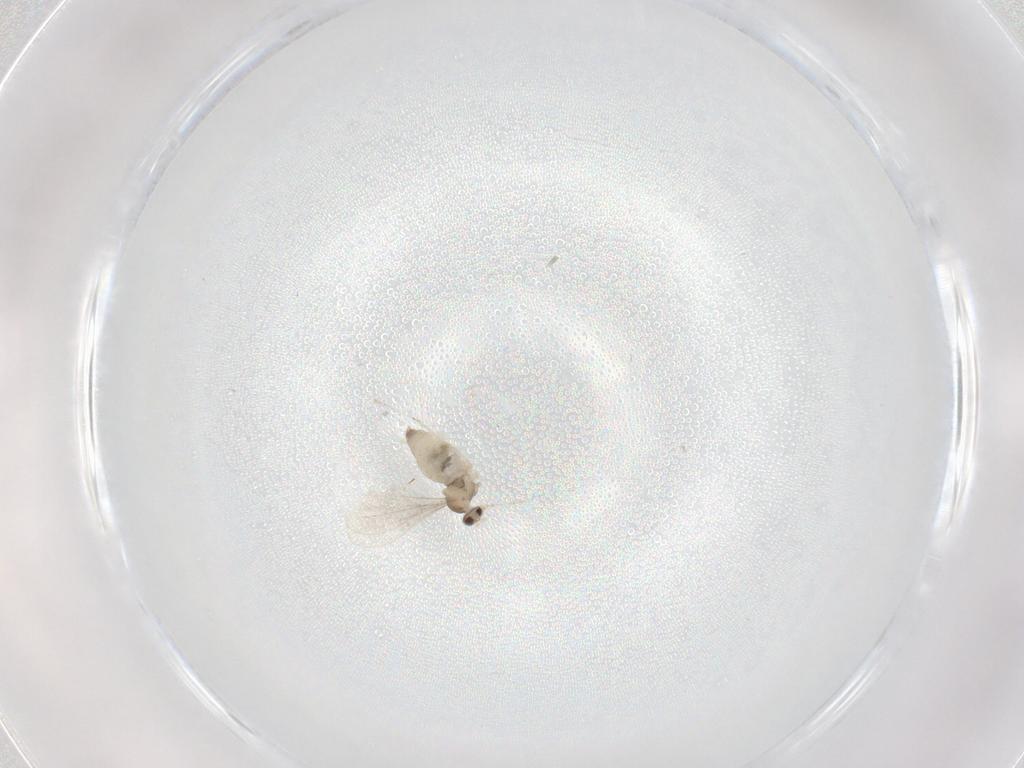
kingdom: Animalia
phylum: Arthropoda
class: Insecta
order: Diptera
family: Cecidomyiidae
